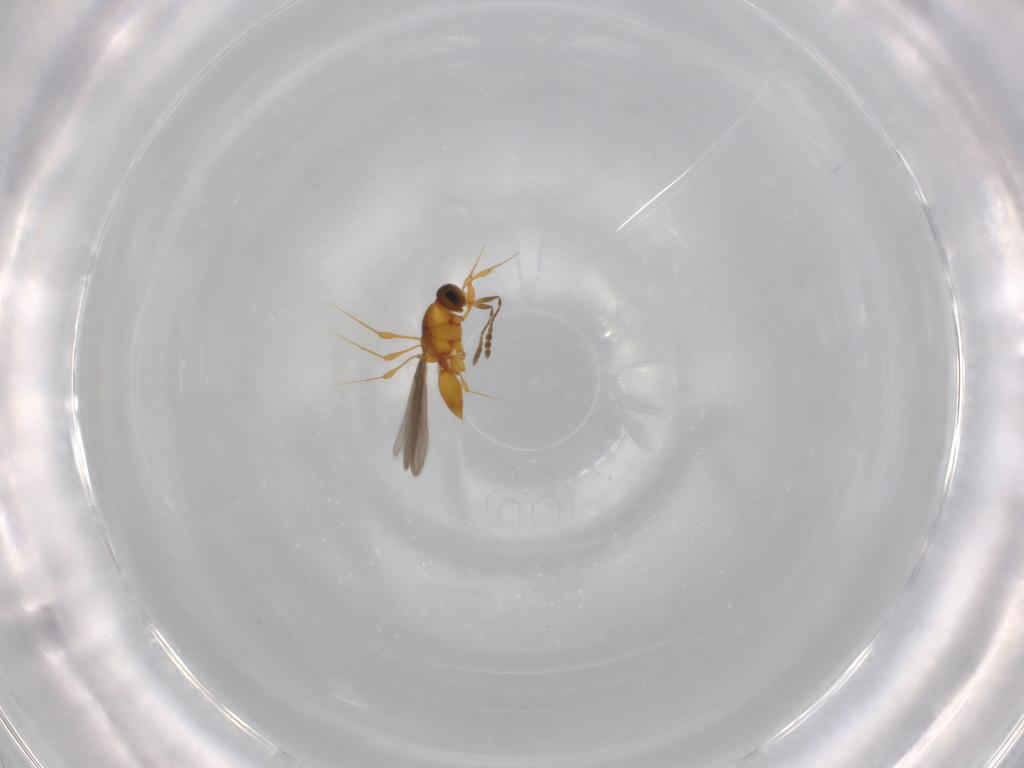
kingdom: Animalia
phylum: Arthropoda
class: Insecta
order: Hymenoptera
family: Platygastridae
